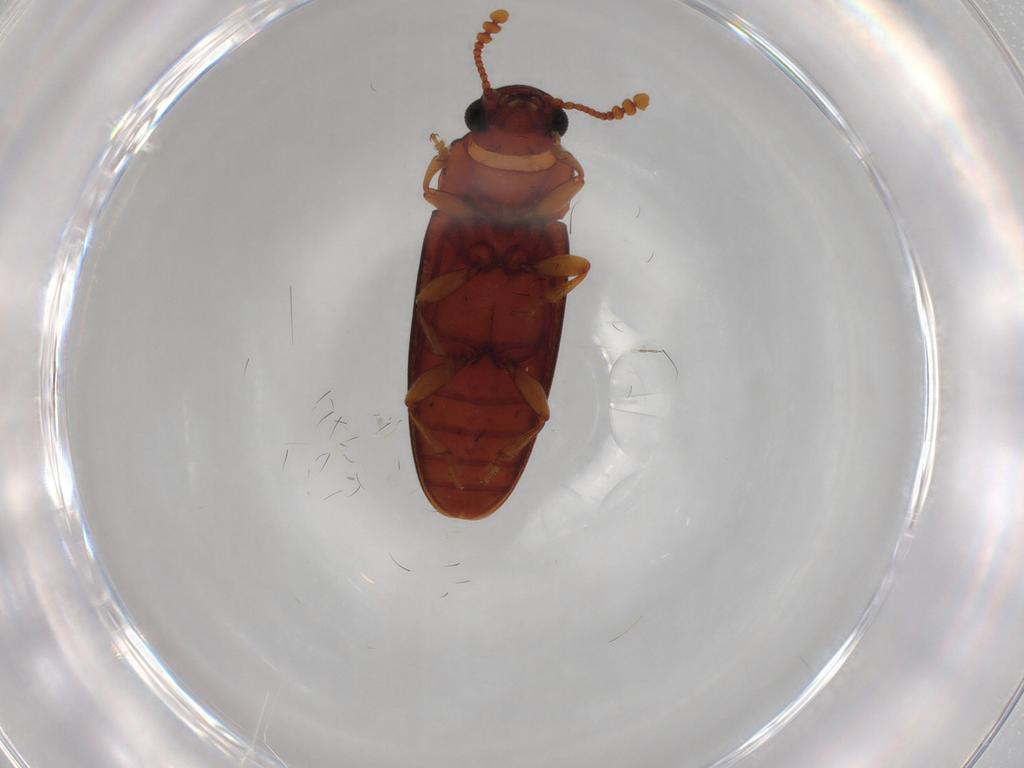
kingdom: Animalia
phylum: Arthropoda
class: Insecta
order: Coleoptera
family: Erotylidae
